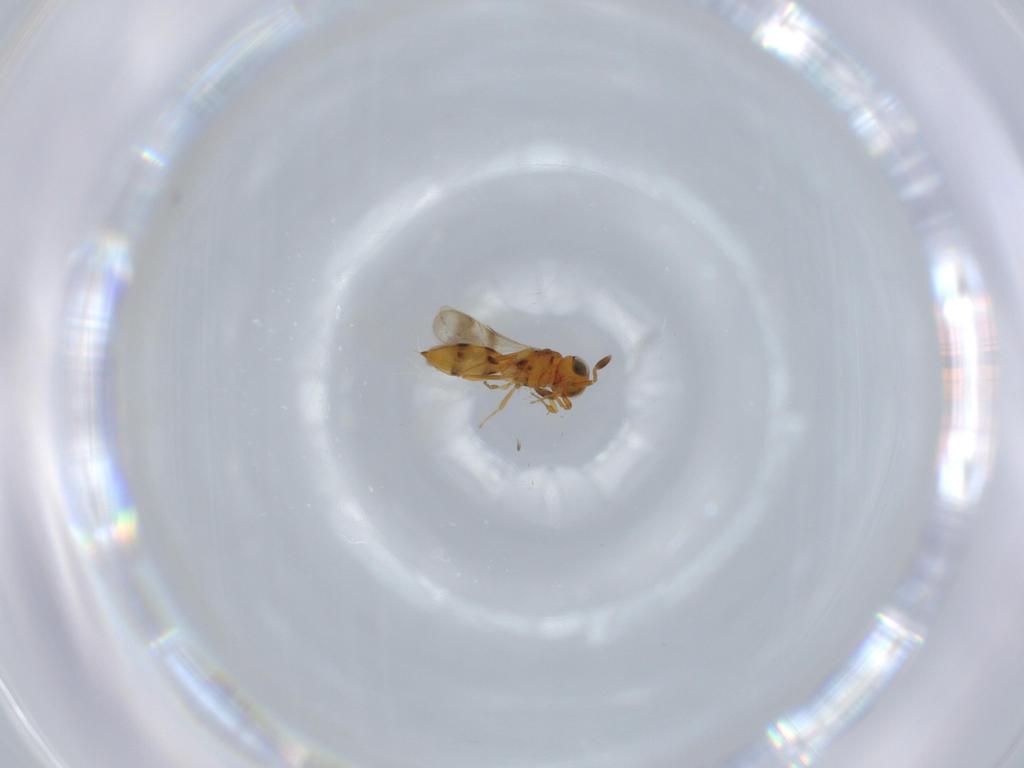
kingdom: Animalia
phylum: Arthropoda
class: Insecta
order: Hymenoptera
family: Scelionidae
